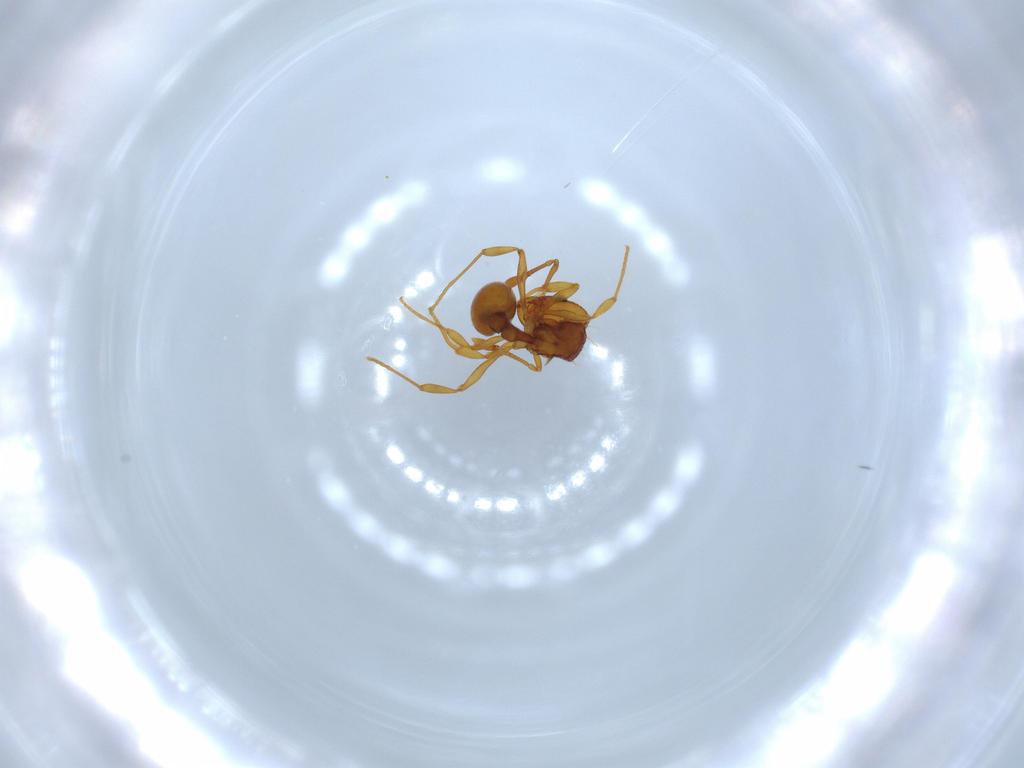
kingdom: Animalia
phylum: Arthropoda
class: Insecta
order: Hymenoptera
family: Formicidae
